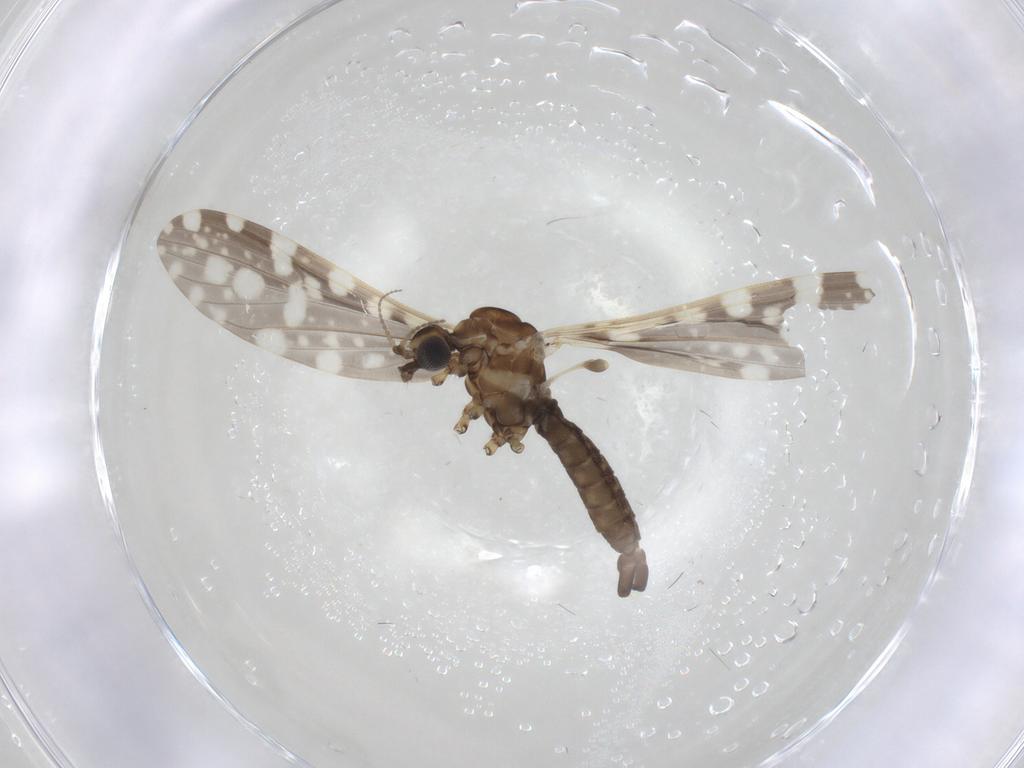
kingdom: Animalia
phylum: Arthropoda
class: Insecta
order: Diptera
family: Limoniidae
